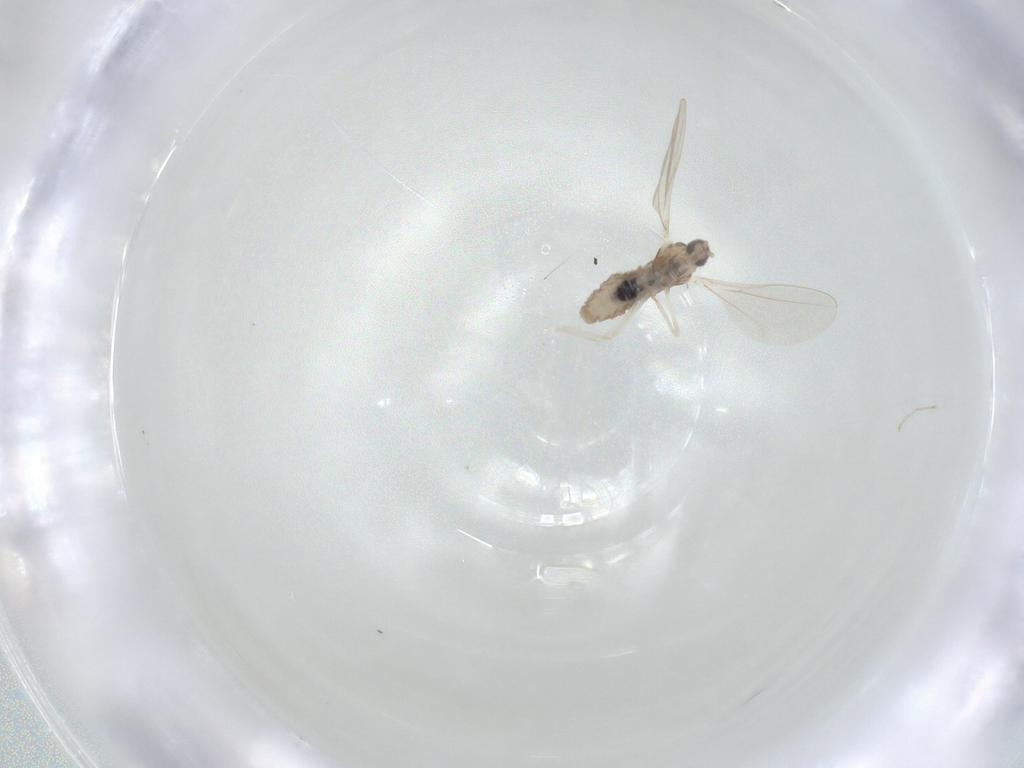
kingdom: Animalia
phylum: Arthropoda
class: Insecta
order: Diptera
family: Cecidomyiidae
